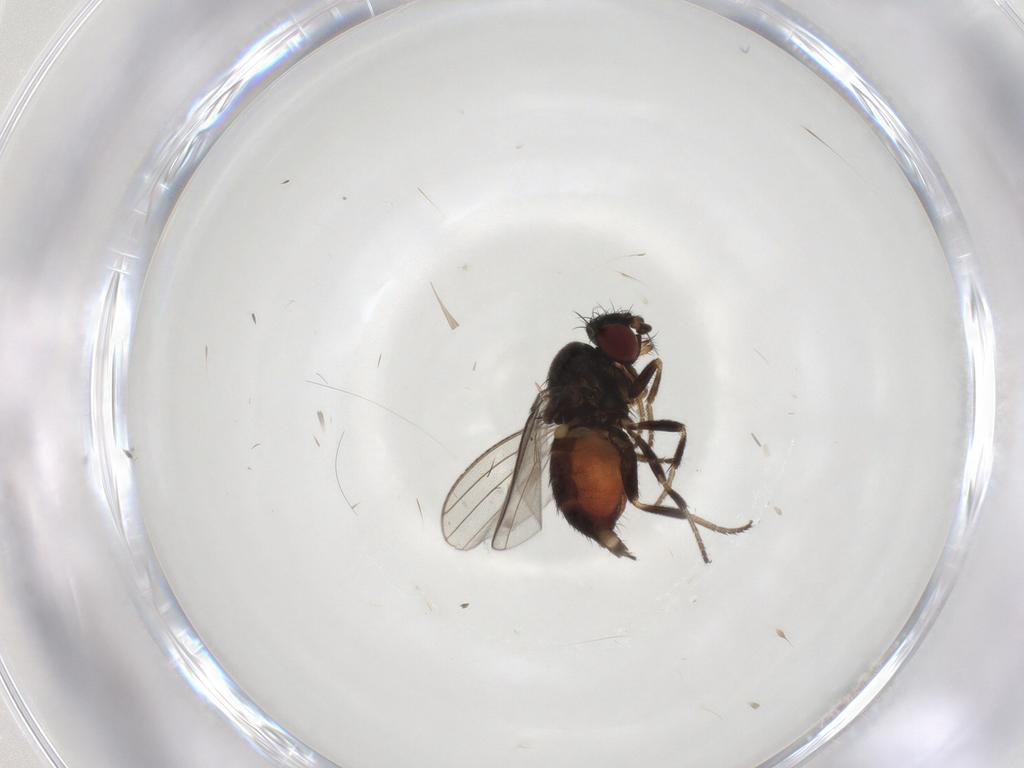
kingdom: Animalia
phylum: Arthropoda
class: Insecta
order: Diptera
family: Milichiidae
